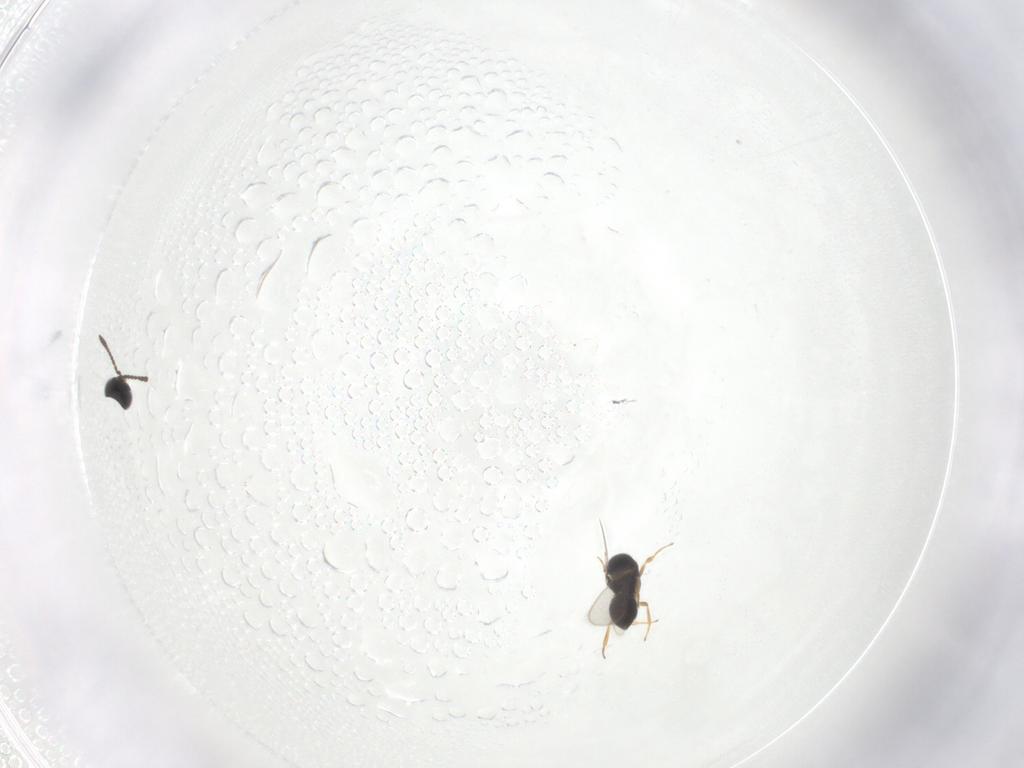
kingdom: Animalia
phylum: Arthropoda
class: Insecta
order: Hymenoptera
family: Scelionidae
